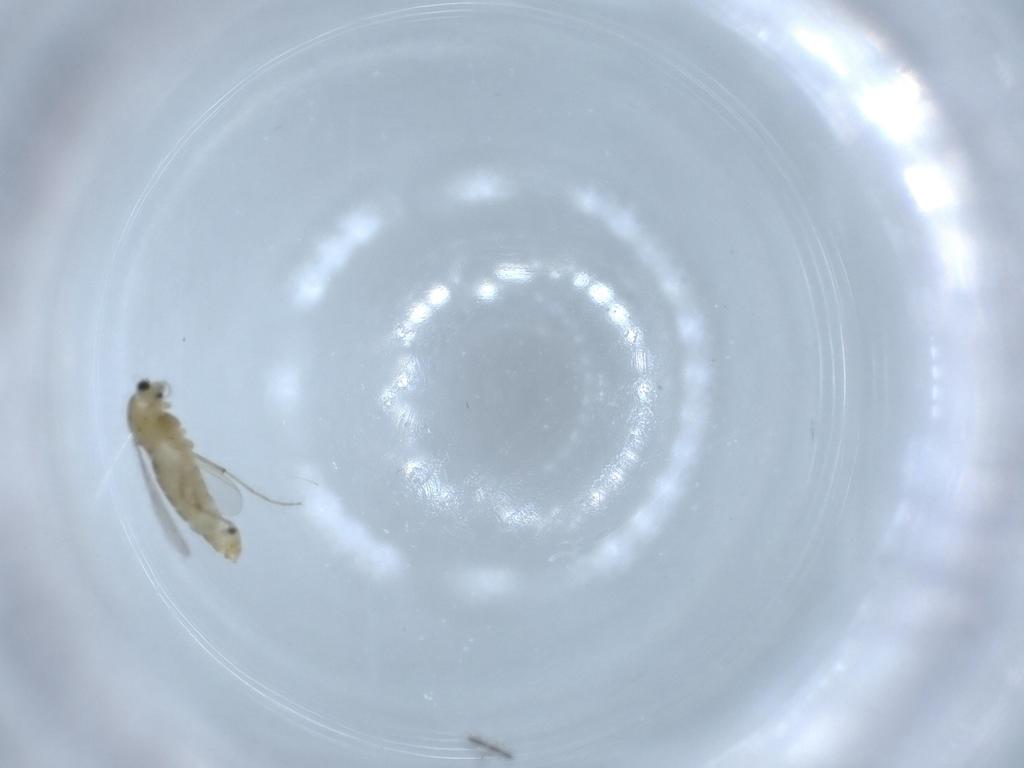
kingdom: Animalia
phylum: Arthropoda
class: Insecta
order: Diptera
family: Chironomidae
